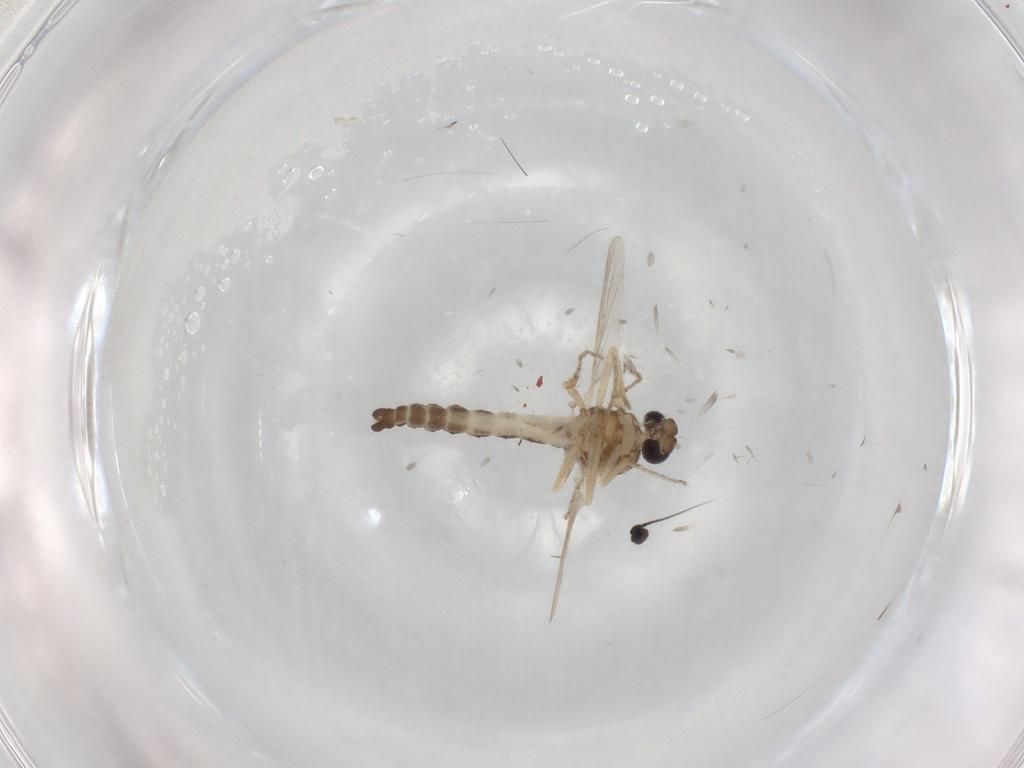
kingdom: Animalia
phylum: Arthropoda
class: Insecta
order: Diptera
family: Ceratopogonidae
